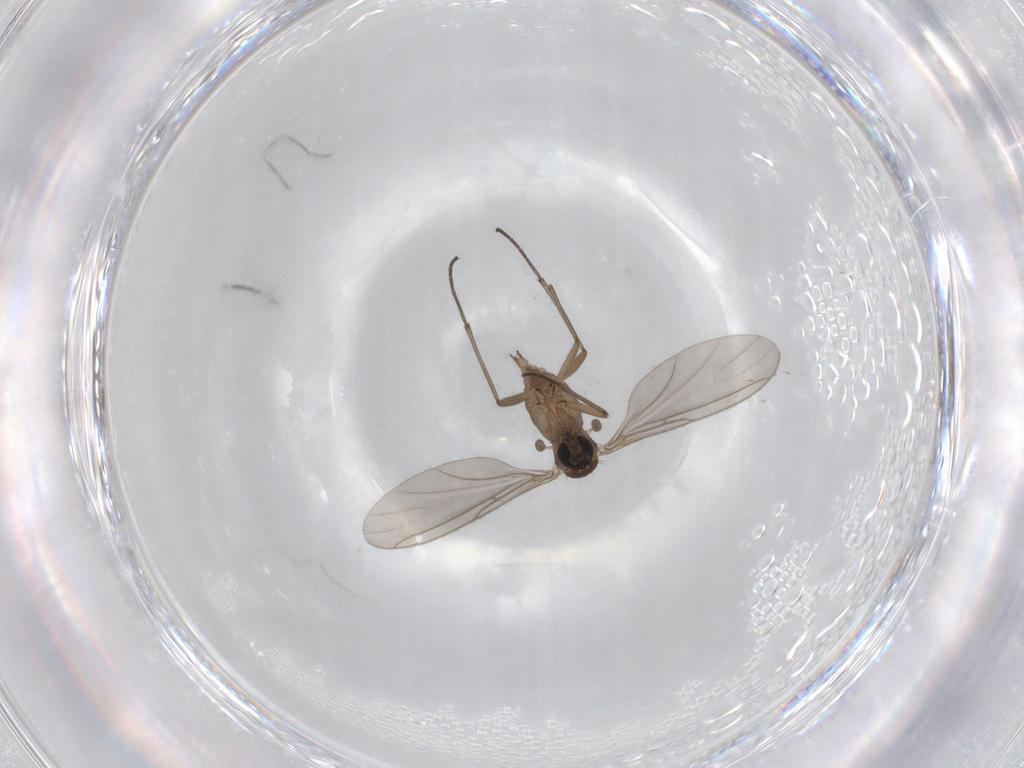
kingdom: Animalia
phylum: Arthropoda
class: Insecta
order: Diptera
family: Sciaridae
